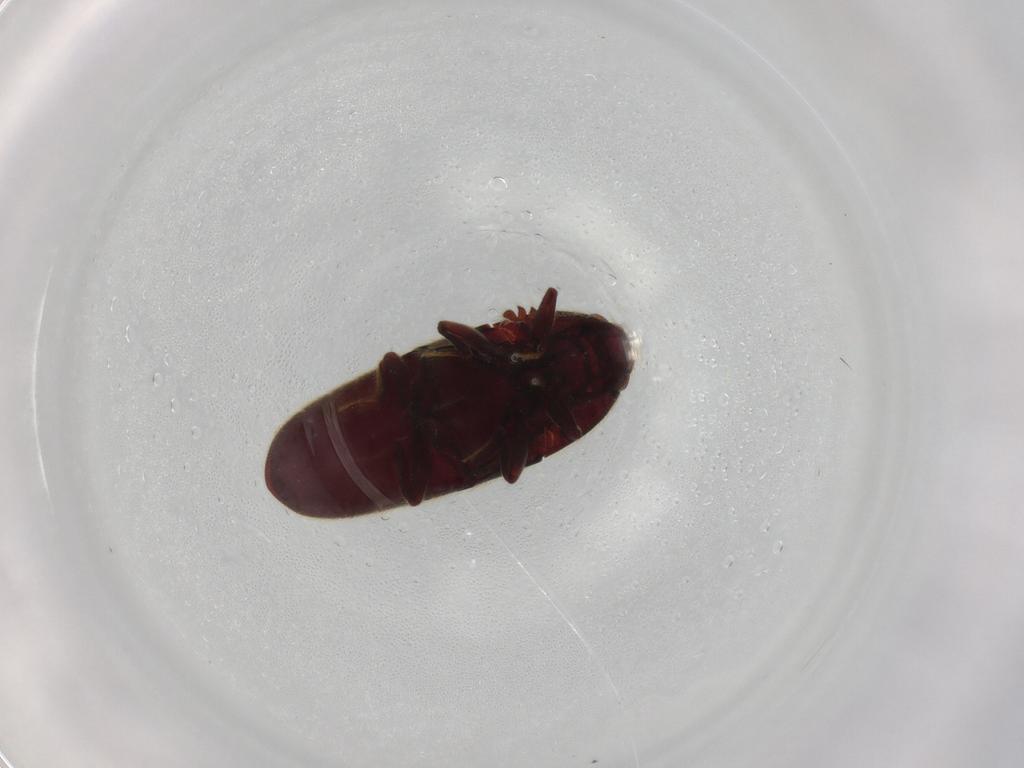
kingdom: Animalia
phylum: Arthropoda
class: Insecta
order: Coleoptera
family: Throscidae
